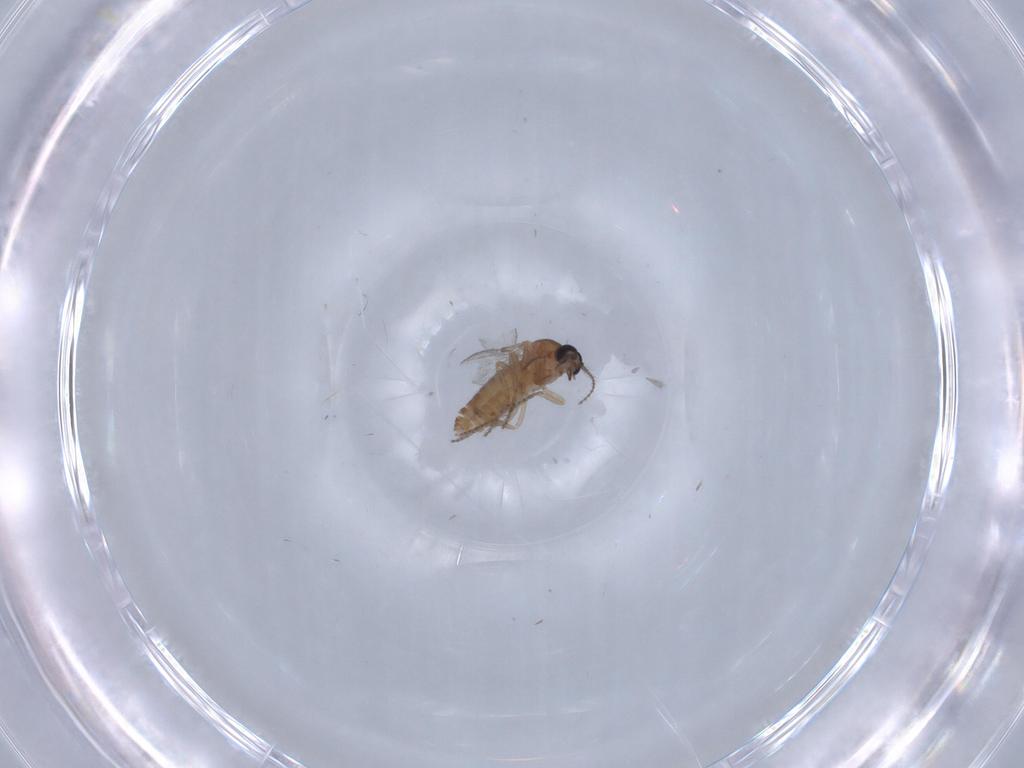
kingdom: Animalia
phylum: Arthropoda
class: Insecta
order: Diptera
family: Ceratopogonidae
